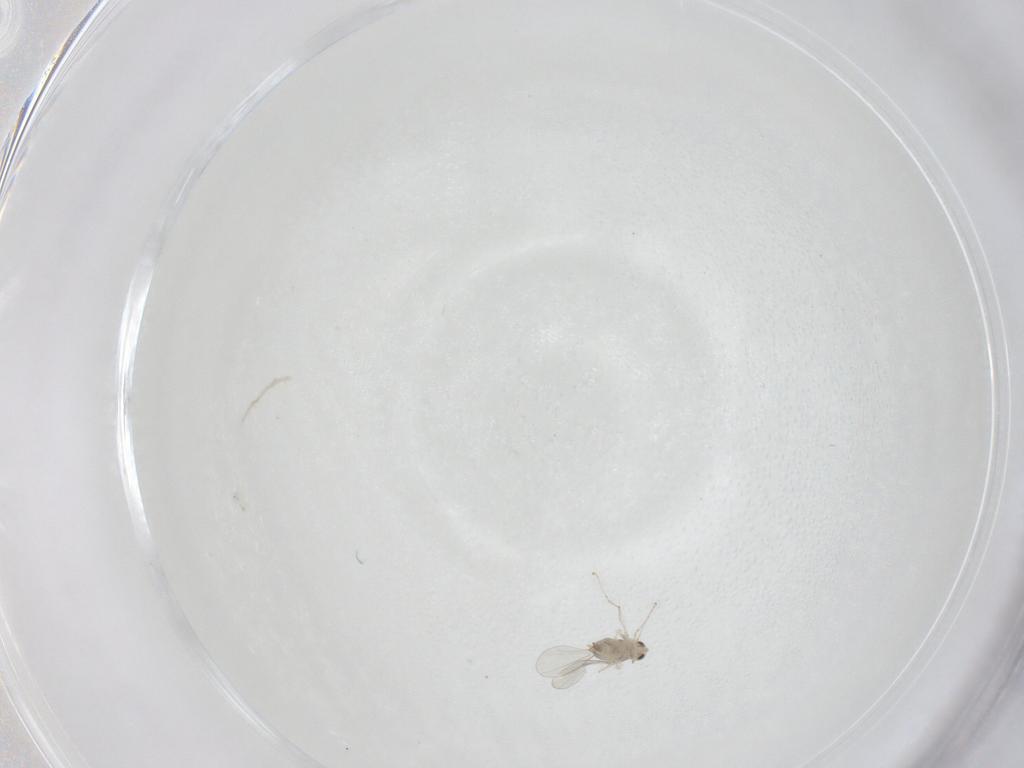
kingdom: Animalia
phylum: Arthropoda
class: Insecta
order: Diptera
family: Cecidomyiidae
